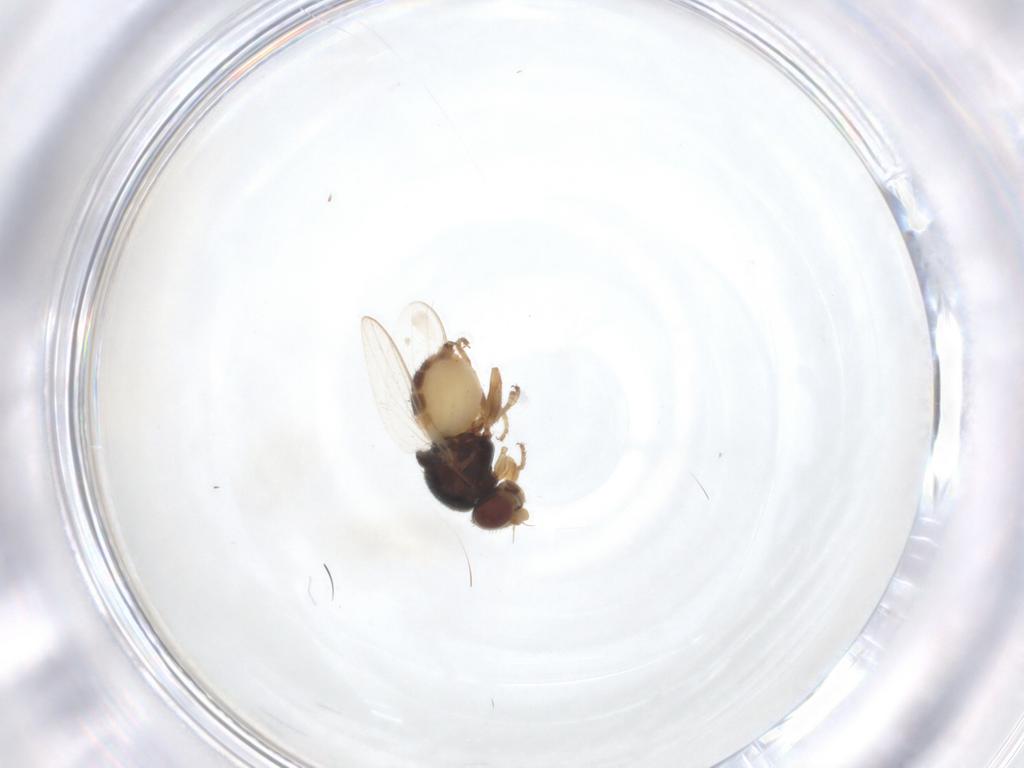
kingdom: Animalia
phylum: Arthropoda
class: Insecta
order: Diptera
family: Chloropidae
